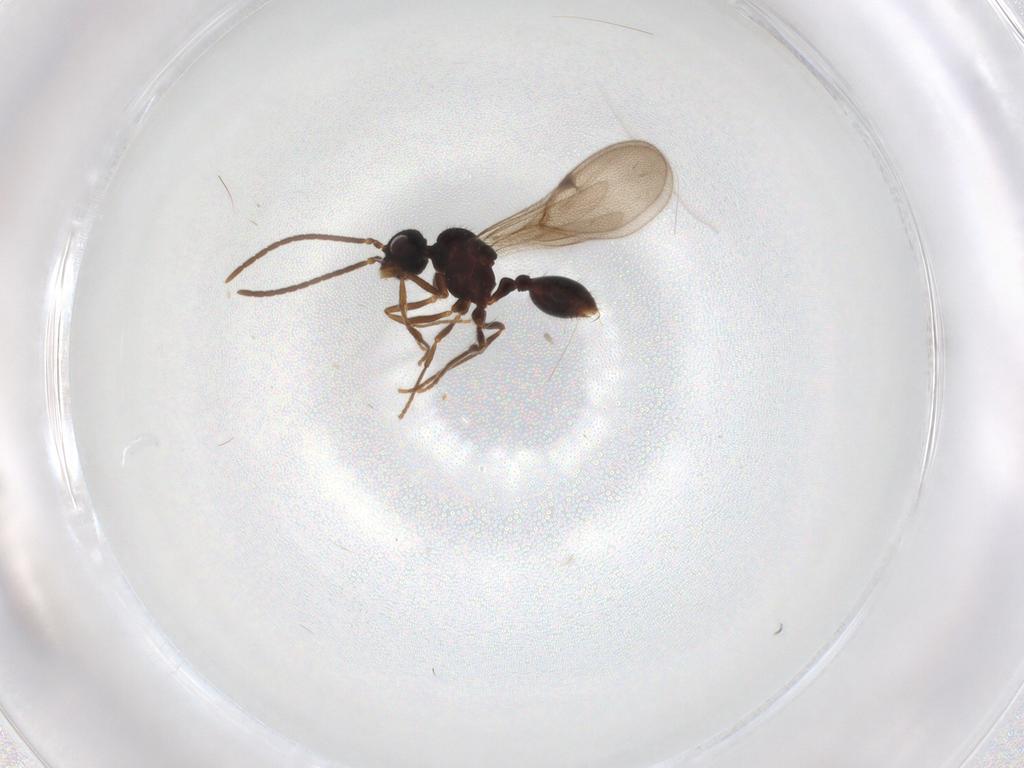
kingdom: Animalia
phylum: Arthropoda
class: Insecta
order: Hymenoptera
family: Formicidae
